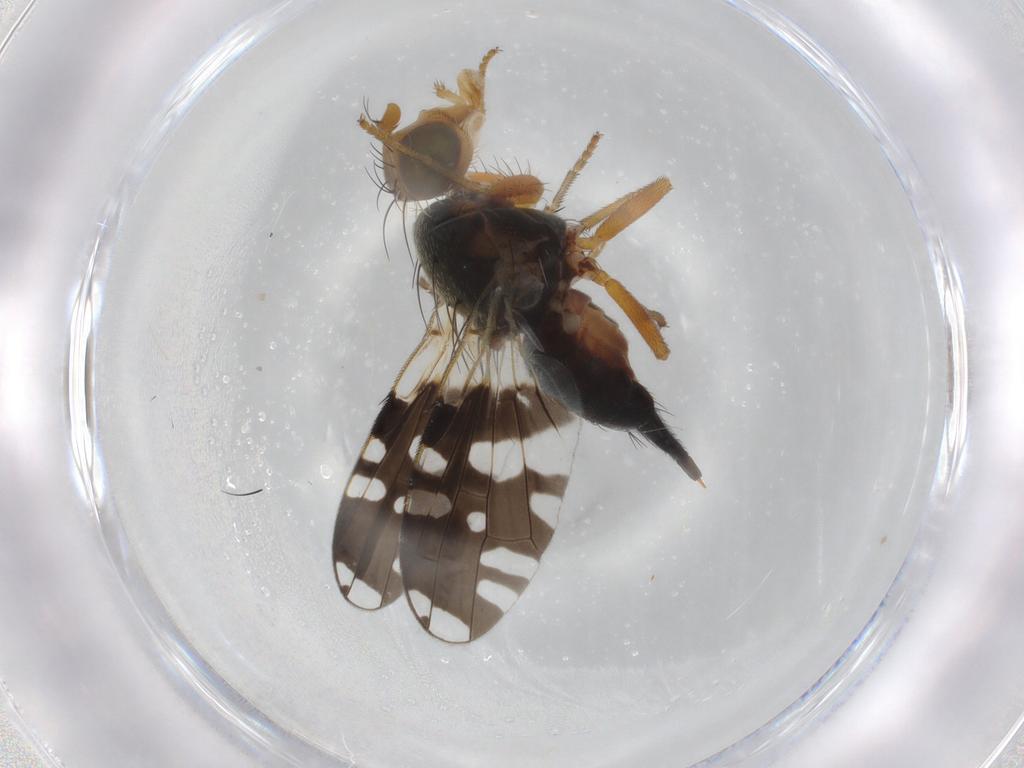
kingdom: Animalia
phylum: Arthropoda
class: Insecta
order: Diptera
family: Tephritidae
